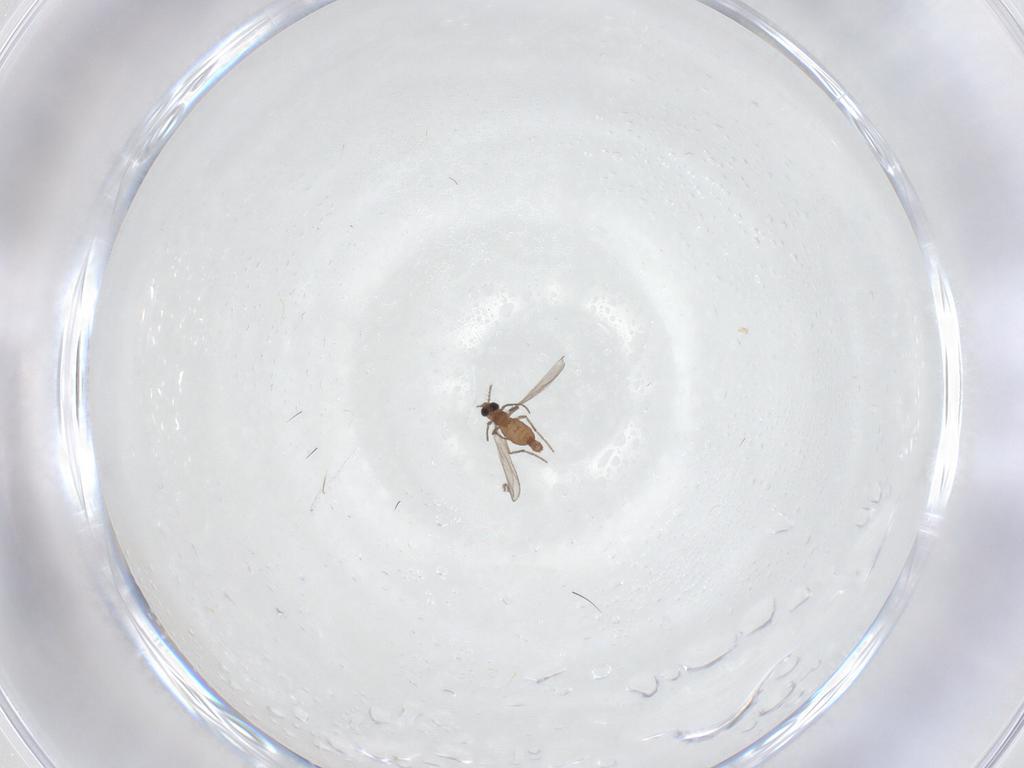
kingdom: Animalia
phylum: Arthropoda
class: Insecta
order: Diptera
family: Chironomidae
